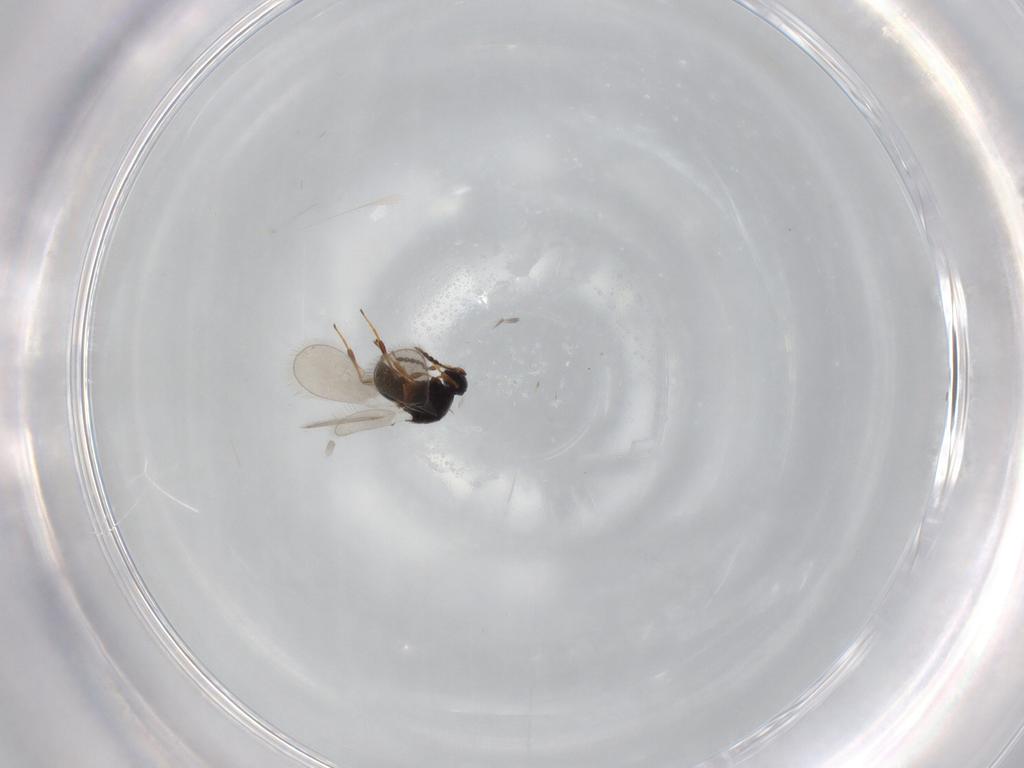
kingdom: Animalia
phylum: Arthropoda
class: Insecta
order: Hymenoptera
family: Platygastridae
